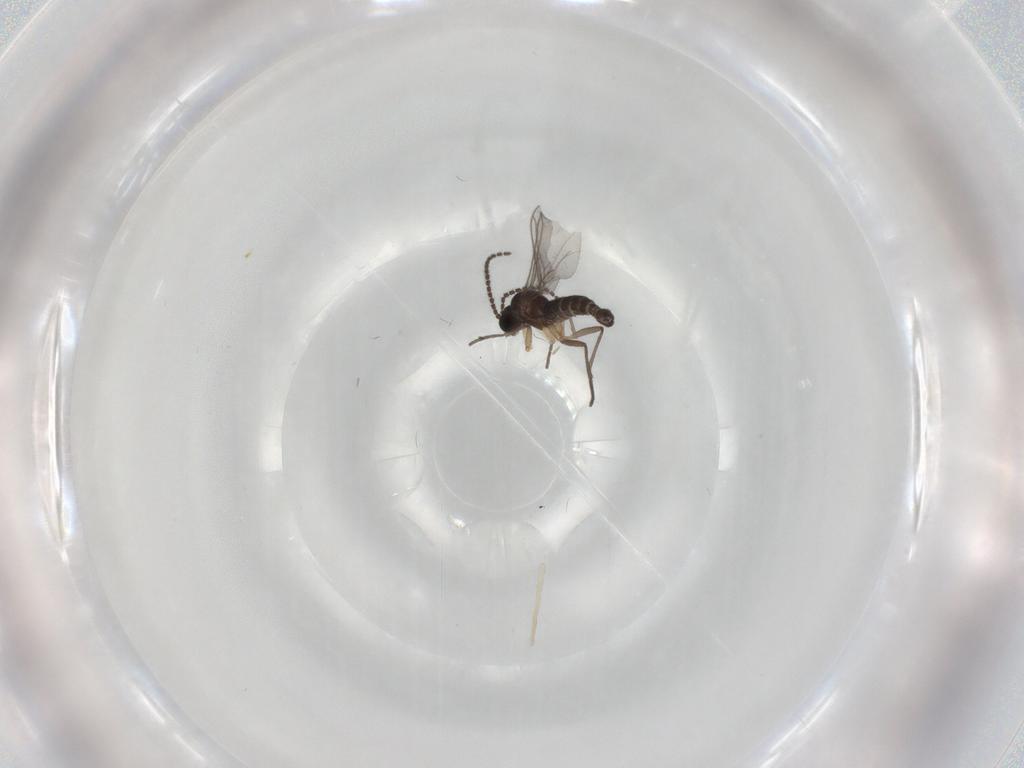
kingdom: Animalia
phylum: Arthropoda
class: Insecta
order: Diptera
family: Sciaridae
